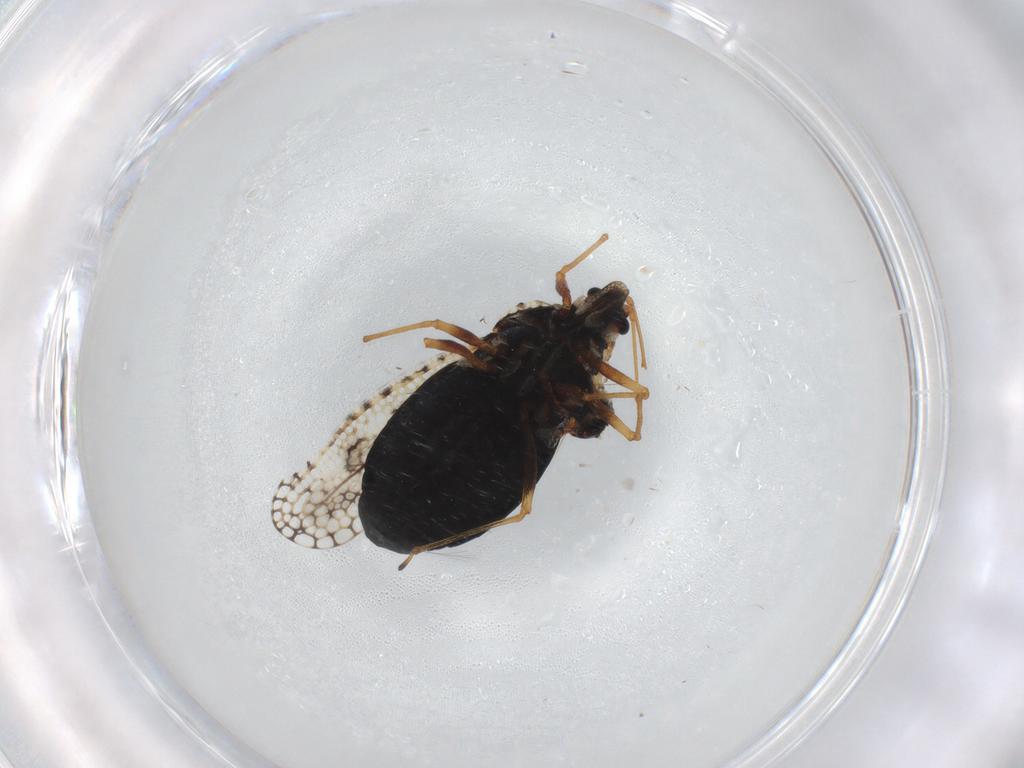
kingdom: Animalia
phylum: Arthropoda
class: Insecta
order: Hemiptera
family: Tingidae
